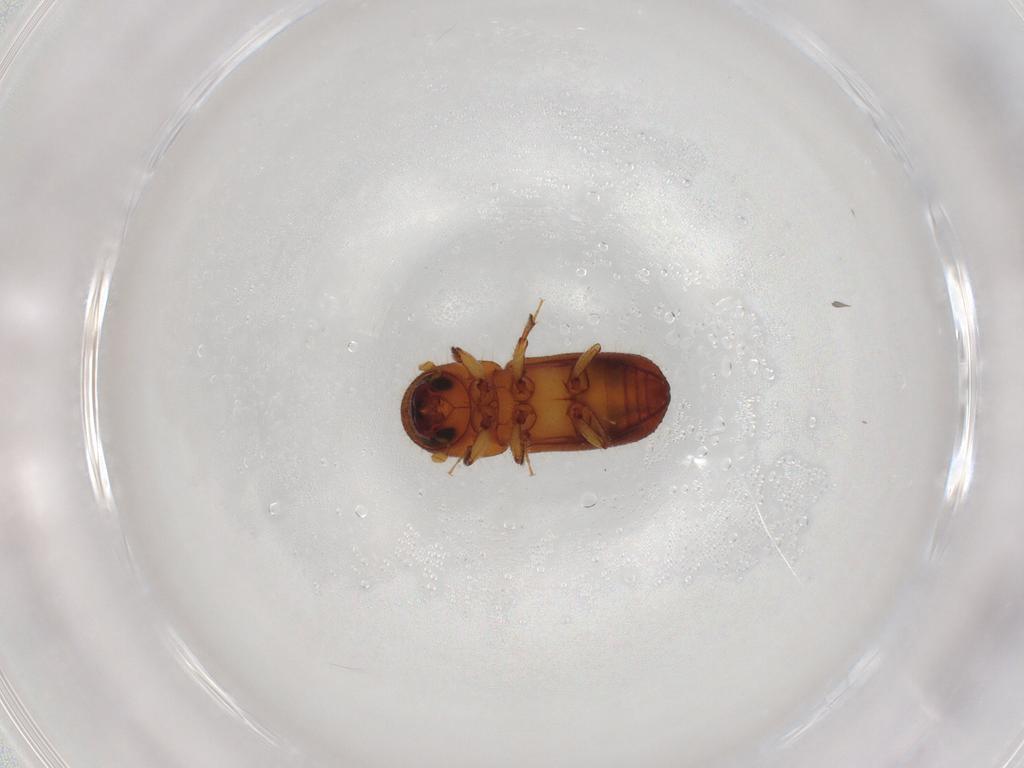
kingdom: Animalia
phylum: Arthropoda
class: Insecta
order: Coleoptera
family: Curculionidae
